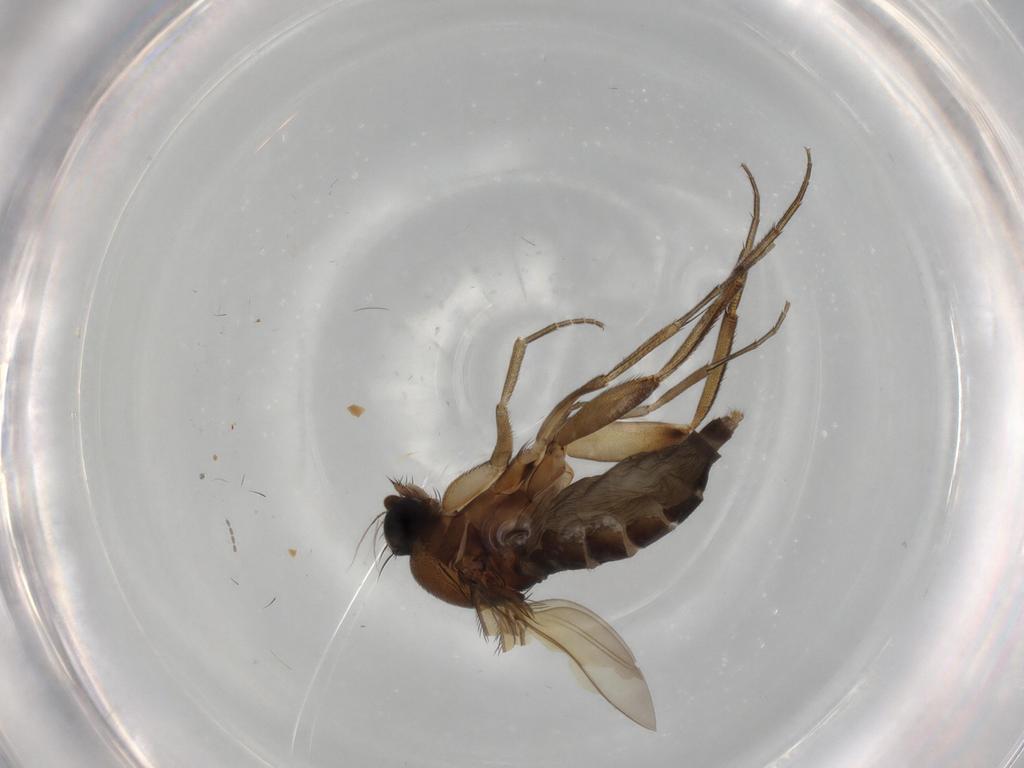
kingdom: Animalia
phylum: Arthropoda
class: Insecta
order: Diptera
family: Phoridae
